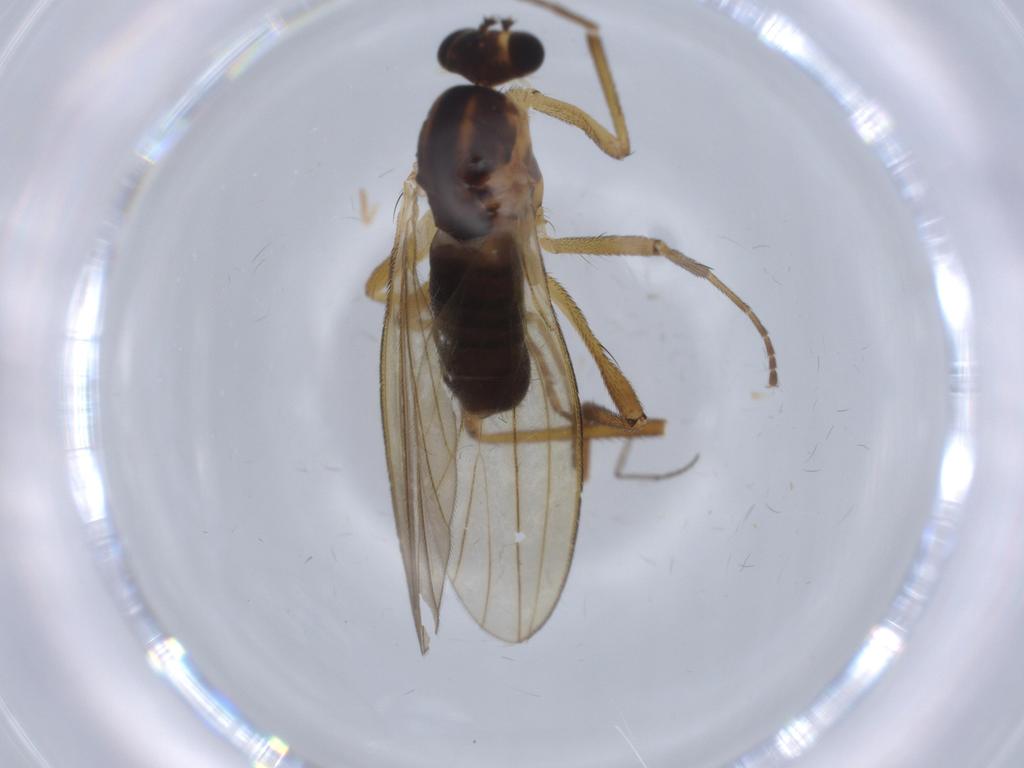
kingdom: Animalia
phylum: Arthropoda
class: Insecta
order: Diptera
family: Lonchopteridae
